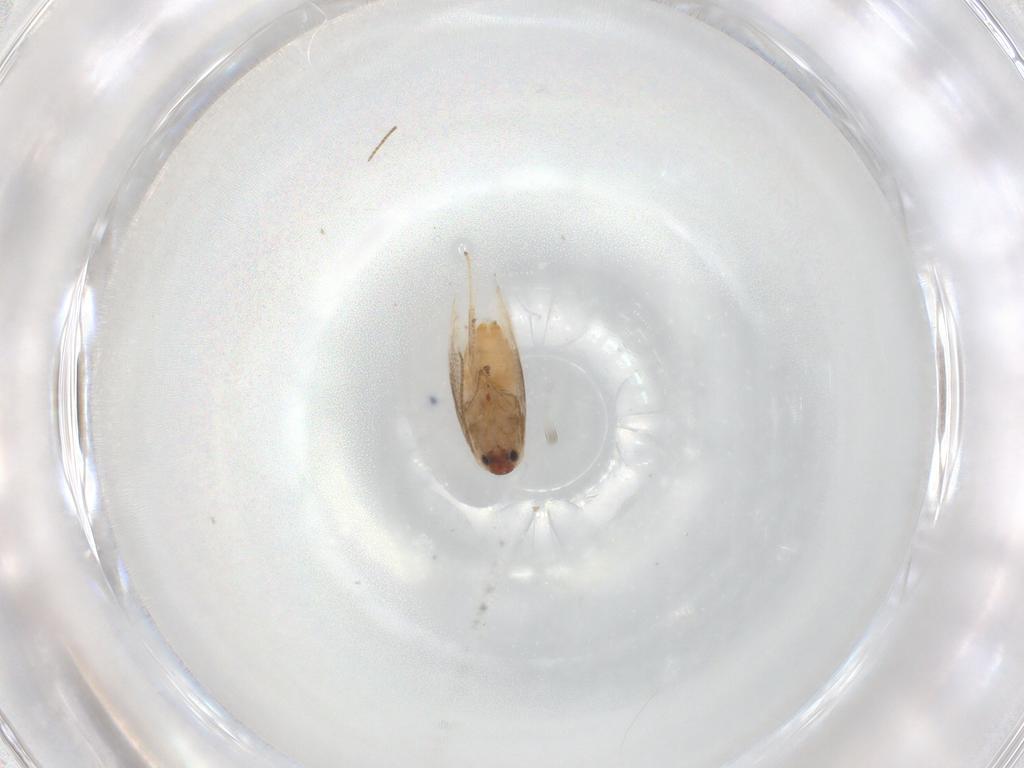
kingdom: Animalia
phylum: Arthropoda
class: Insecta
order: Lepidoptera
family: Lyonetiidae
